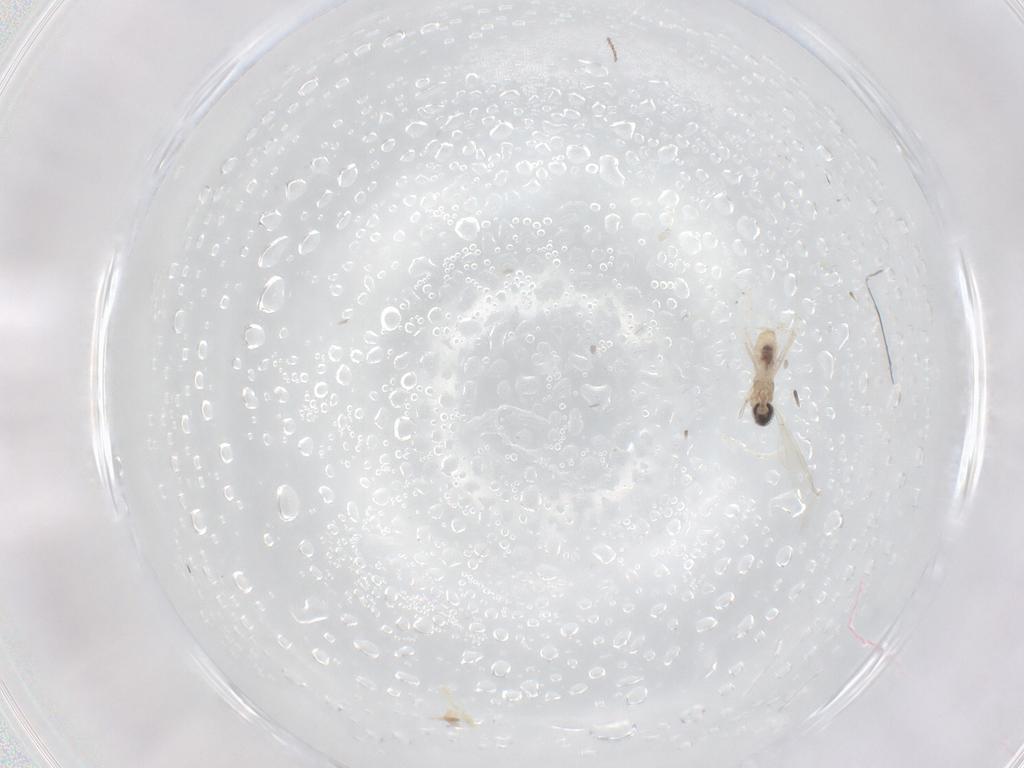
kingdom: Animalia
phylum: Arthropoda
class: Insecta
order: Diptera
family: Cecidomyiidae
